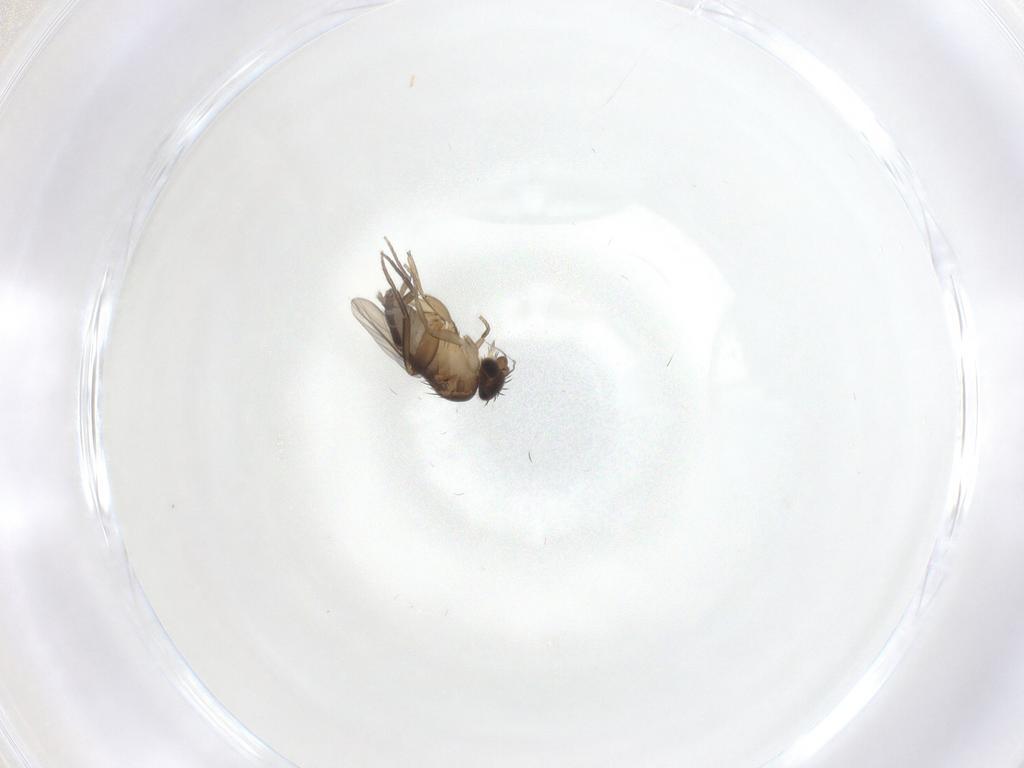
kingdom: Animalia
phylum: Arthropoda
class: Insecta
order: Diptera
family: Phoridae
